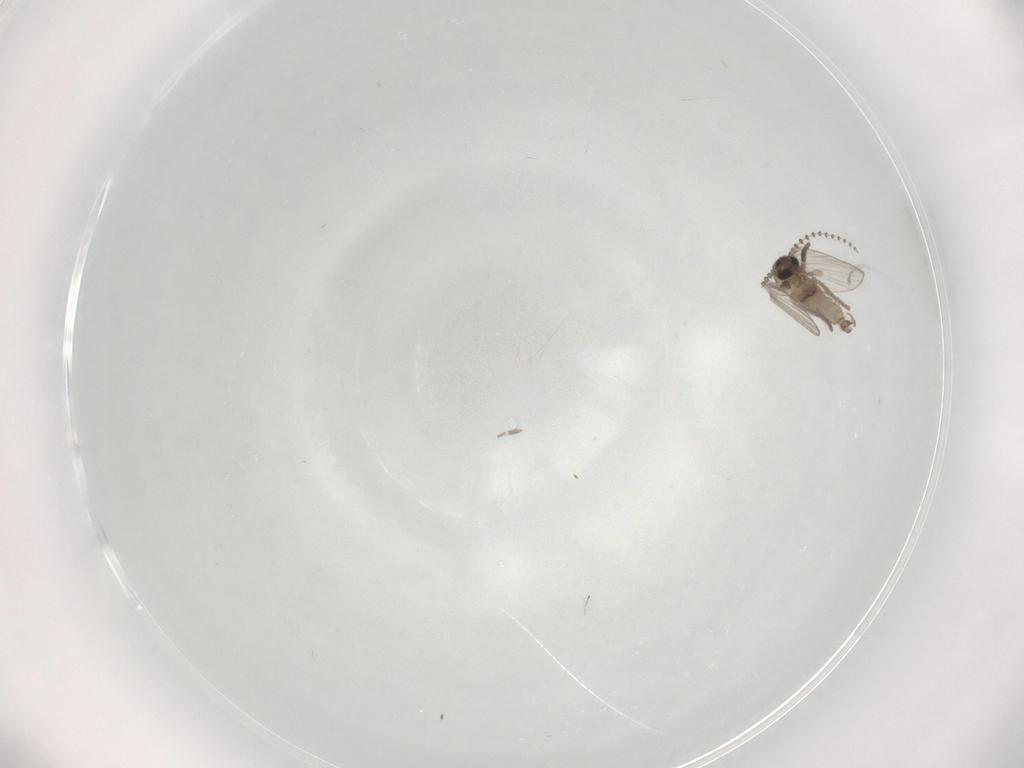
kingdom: Animalia
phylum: Arthropoda
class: Insecta
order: Diptera
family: Psychodidae
